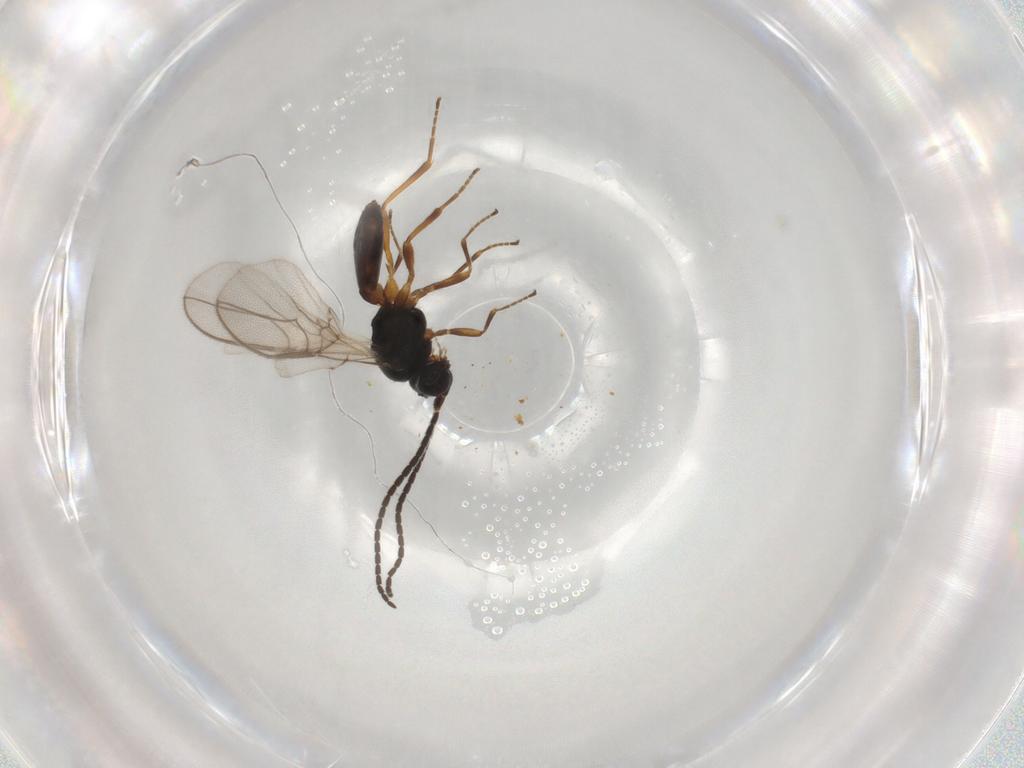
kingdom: Animalia
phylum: Arthropoda
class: Insecta
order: Hymenoptera
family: Braconidae
